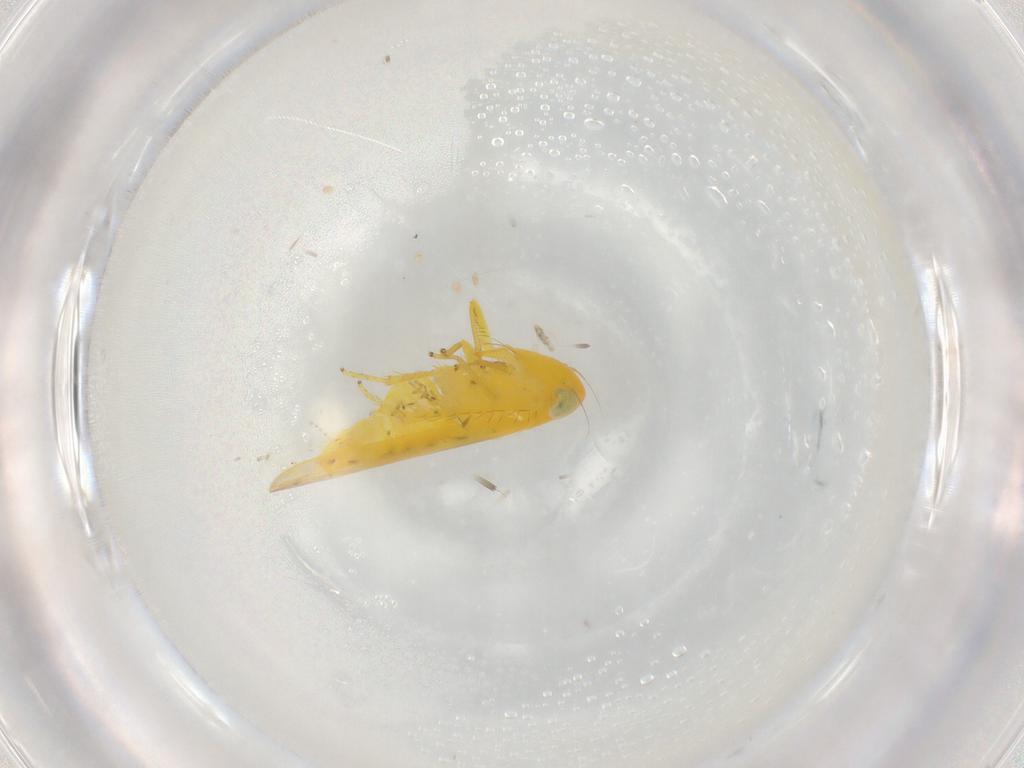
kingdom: Animalia
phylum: Arthropoda
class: Insecta
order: Hemiptera
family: Cicadellidae
